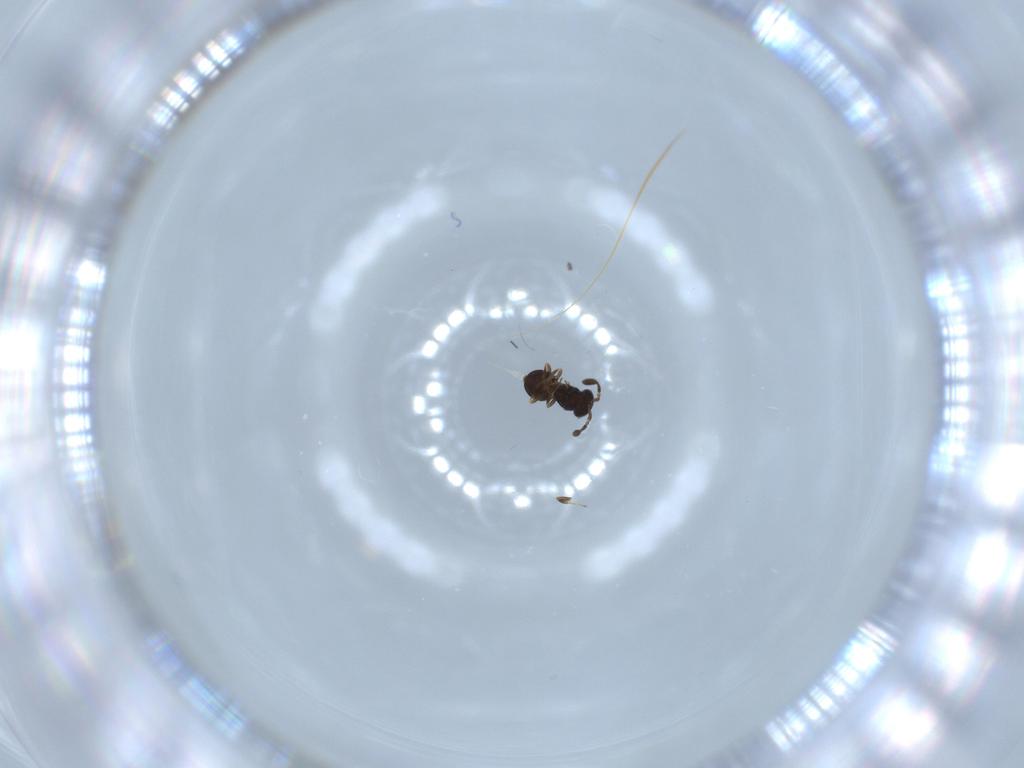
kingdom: Animalia
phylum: Arthropoda
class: Insecta
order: Hymenoptera
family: Scelionidae
